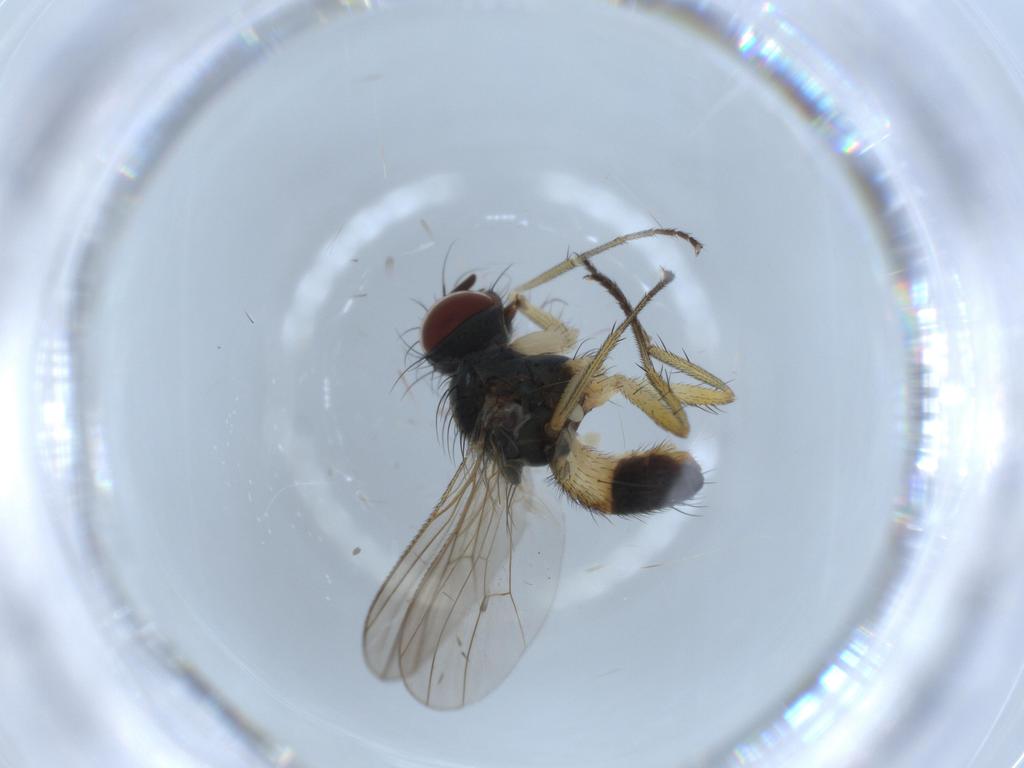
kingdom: Animalia
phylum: Arthropoda
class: Insecta
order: Diptera
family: Muscidae
